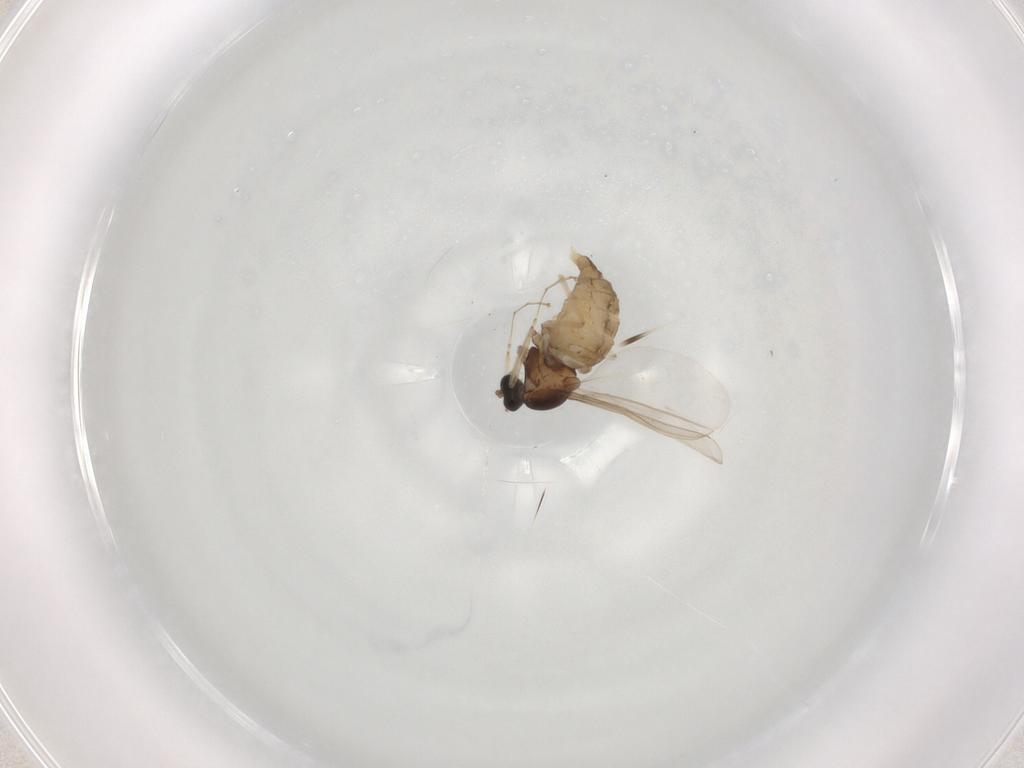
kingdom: Animalia
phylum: Arthropoda
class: Insecta
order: Diptera
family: Cecidomyiidae
